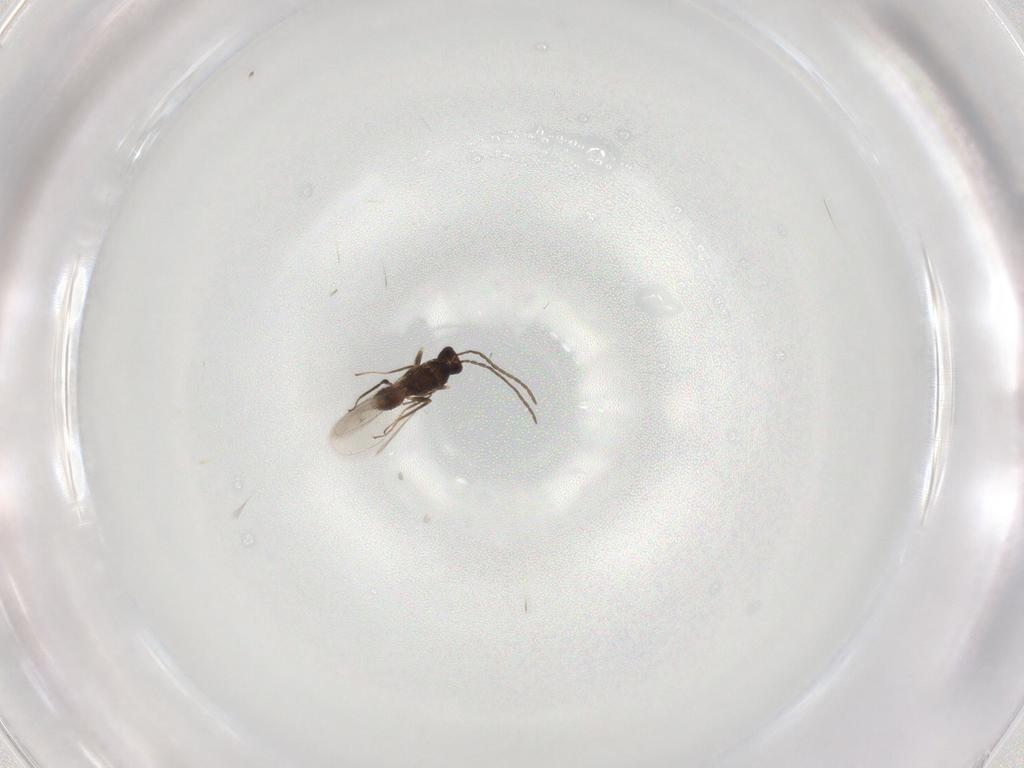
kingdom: Animalia
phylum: Arthropoda
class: Insecta
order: Hymenoptera
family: Mymaridae
